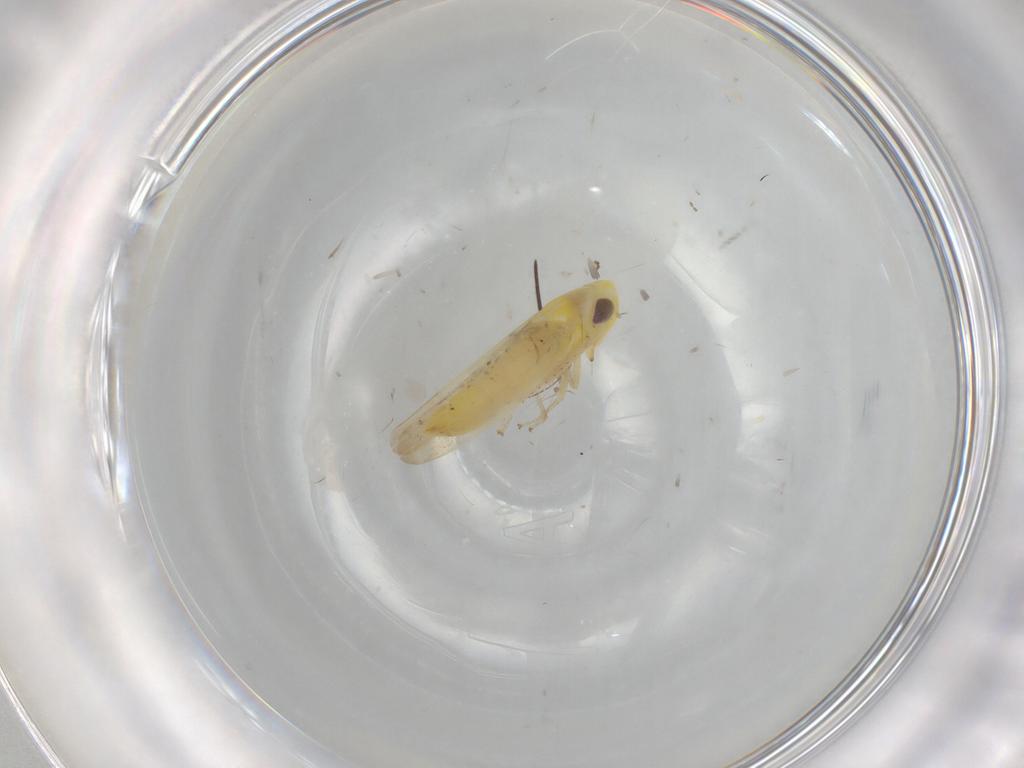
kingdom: Animalia
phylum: Arthropoda
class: Insecta
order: Hemiptera
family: Cicadellidae
